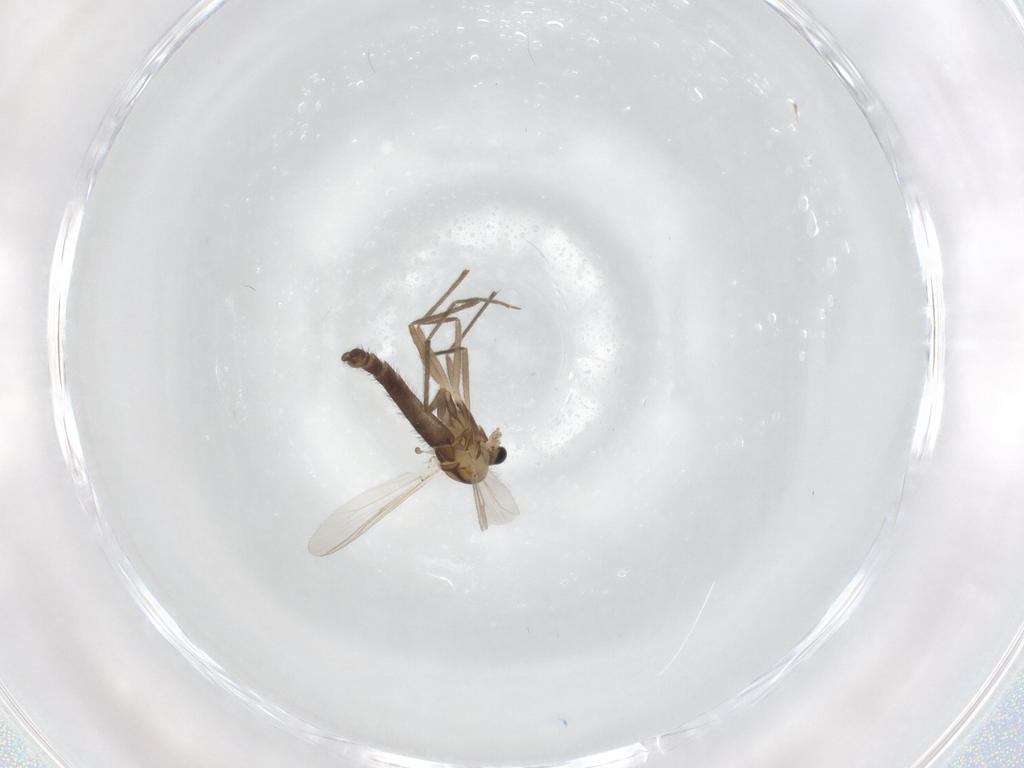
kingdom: Animalia
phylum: Arthropoda
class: Insecta
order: Diptera
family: Chironomidae
